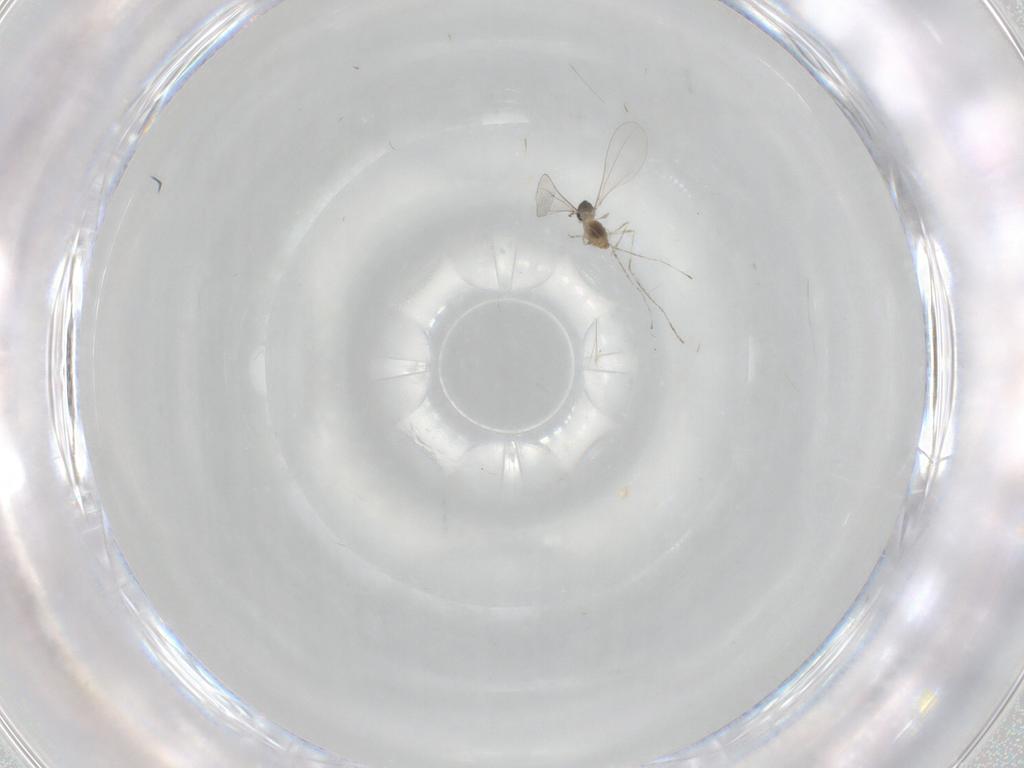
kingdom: Animalia
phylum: Arthropoda
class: Insecta
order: Diptera
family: Cecidomyiidae
